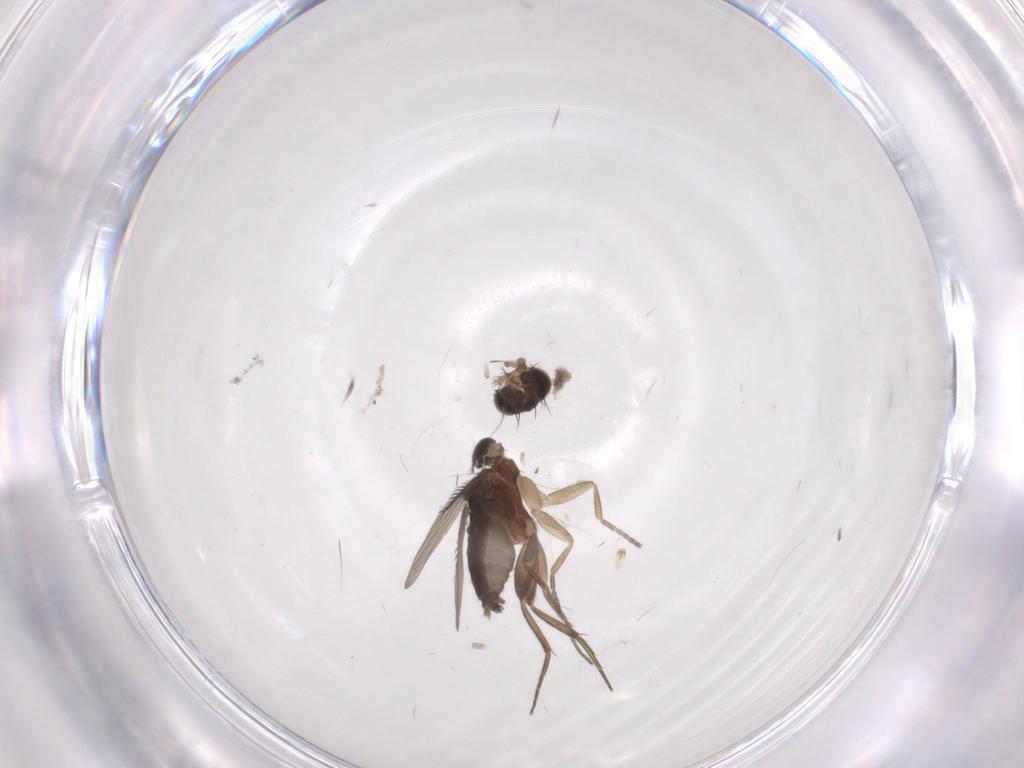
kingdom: Animalia
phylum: Arthropoda
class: Insecta
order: Diptera
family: Phoridae
